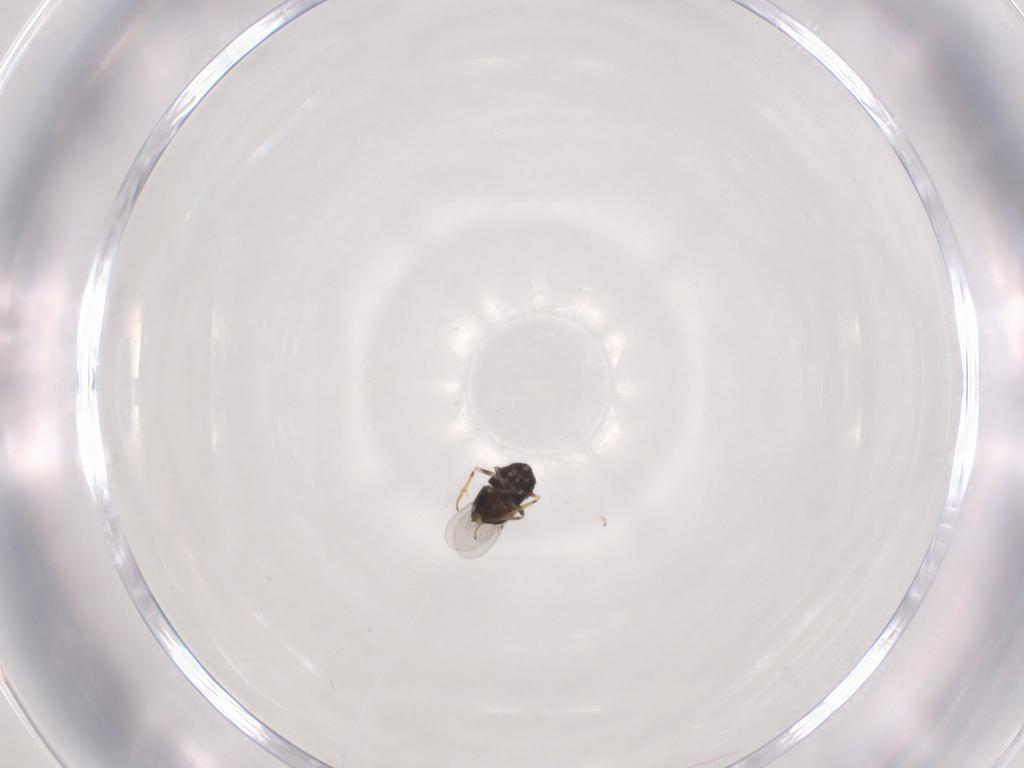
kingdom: Animalia
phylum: Arthropoda
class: Insecta
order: Hymenoptera
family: Encyrtidae
